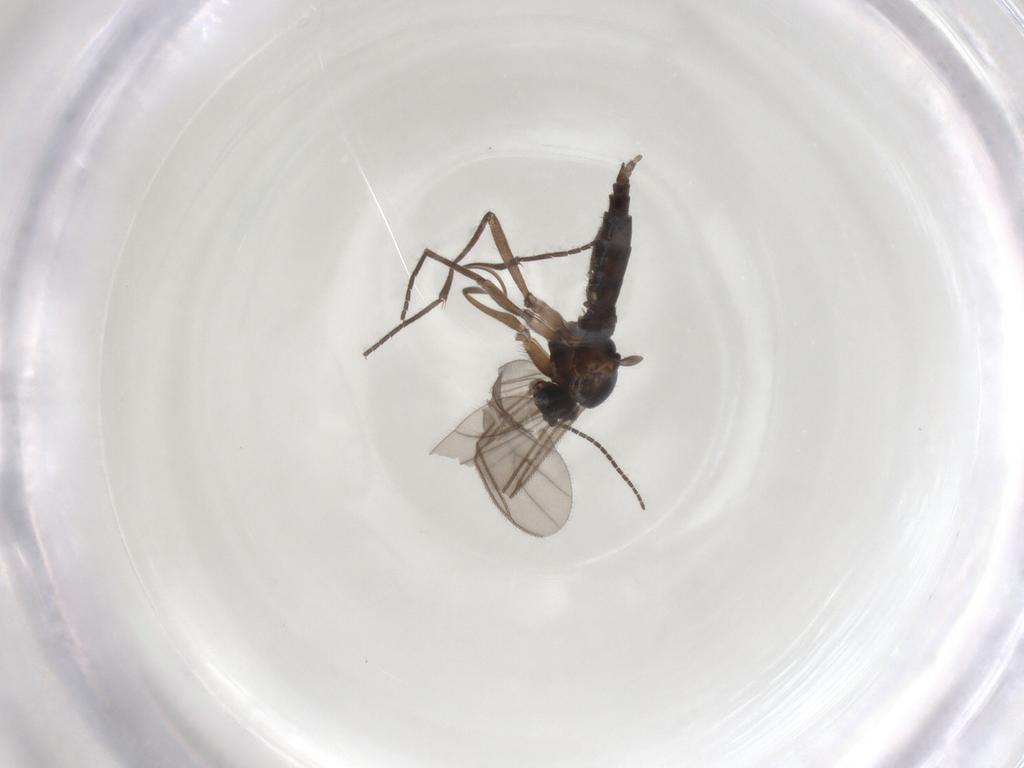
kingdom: Animalia
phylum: Arthropoda
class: Insecta
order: Diptera
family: Sciaridae
